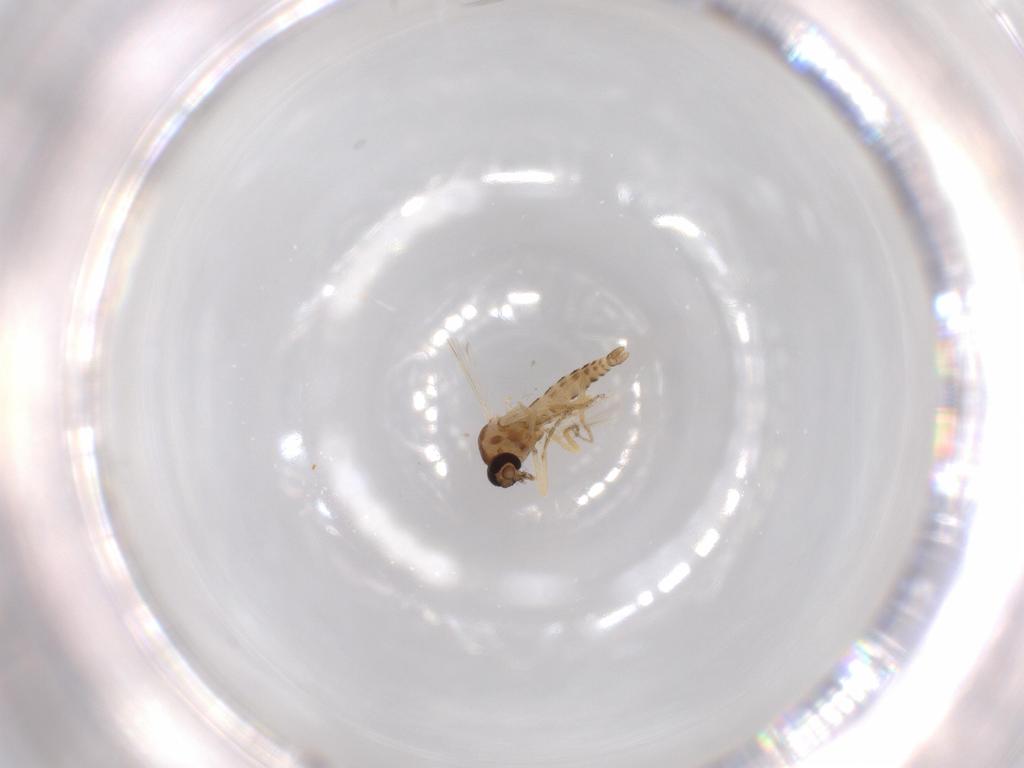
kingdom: Animalia
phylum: Arthropoda
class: Insecta
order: Diptera
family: Ceratopogonidae
